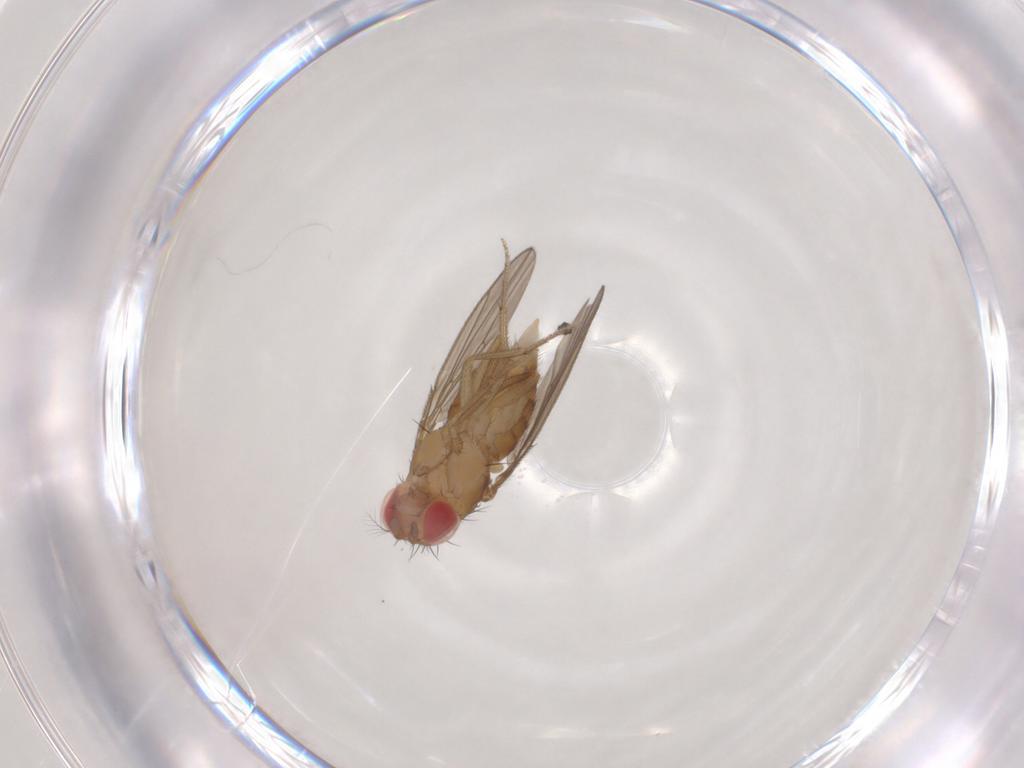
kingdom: Animalia
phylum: Arthropoda
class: Insecta
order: Diptera
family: Drosophilidae
